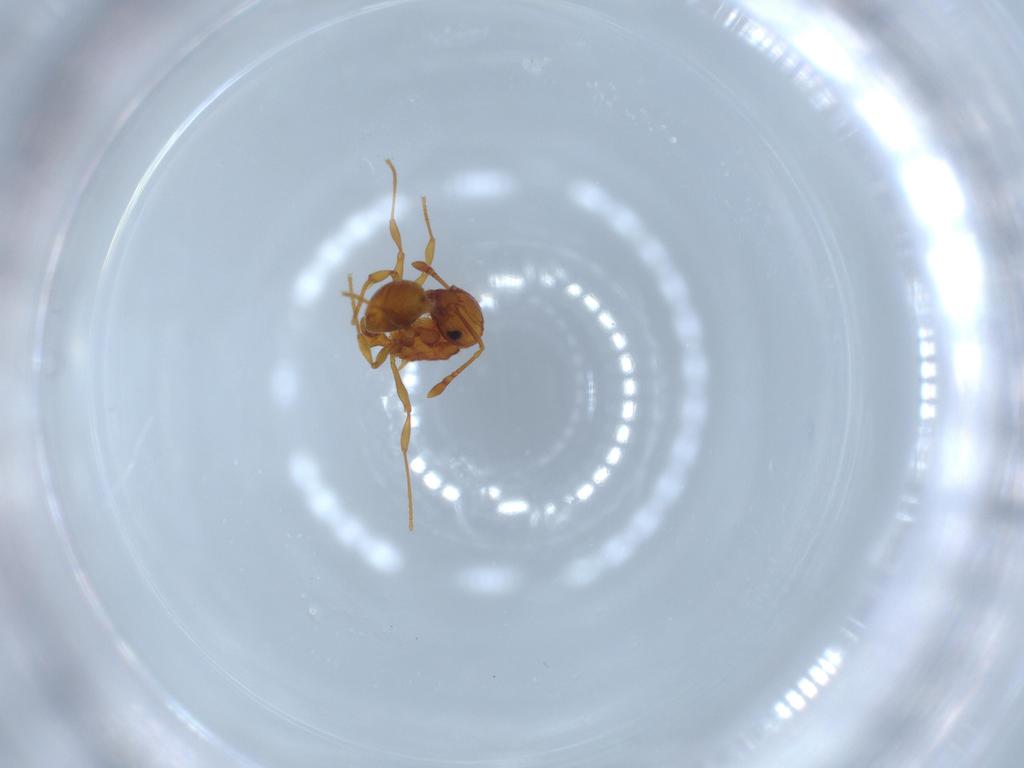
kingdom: Animalia
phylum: Arthropoda
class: Insecta
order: Hymenoptera
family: Formicidae
